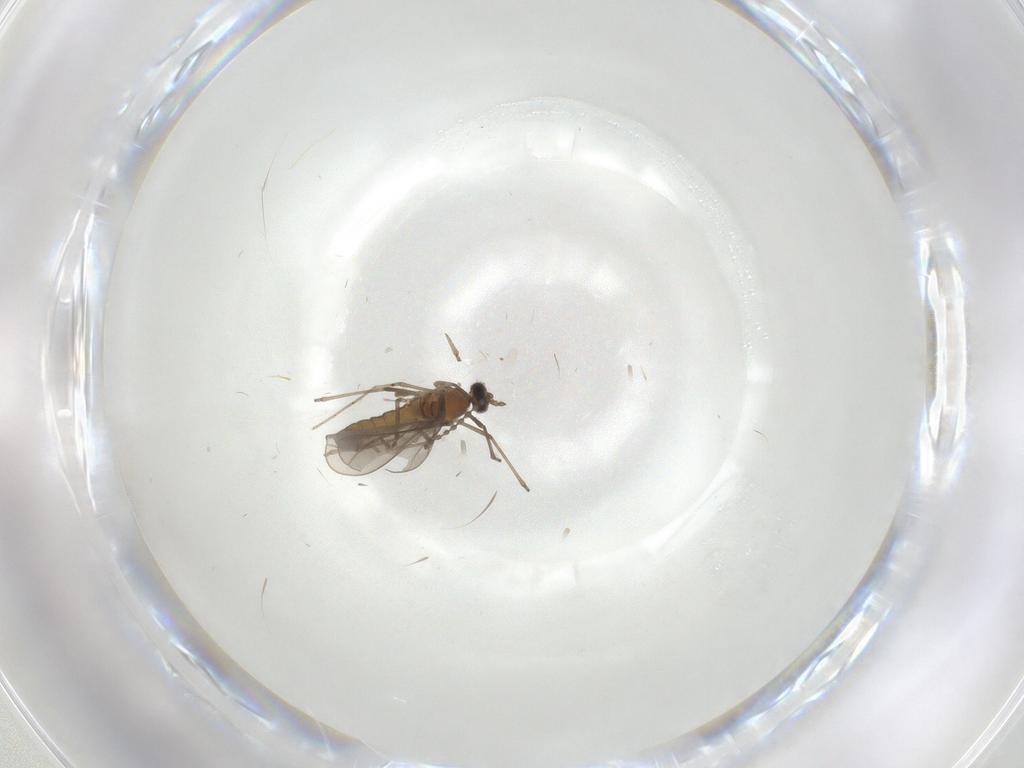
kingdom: Animalia
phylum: Arthropoda
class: Insecta
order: Diptera
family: Cecidomyiidae
